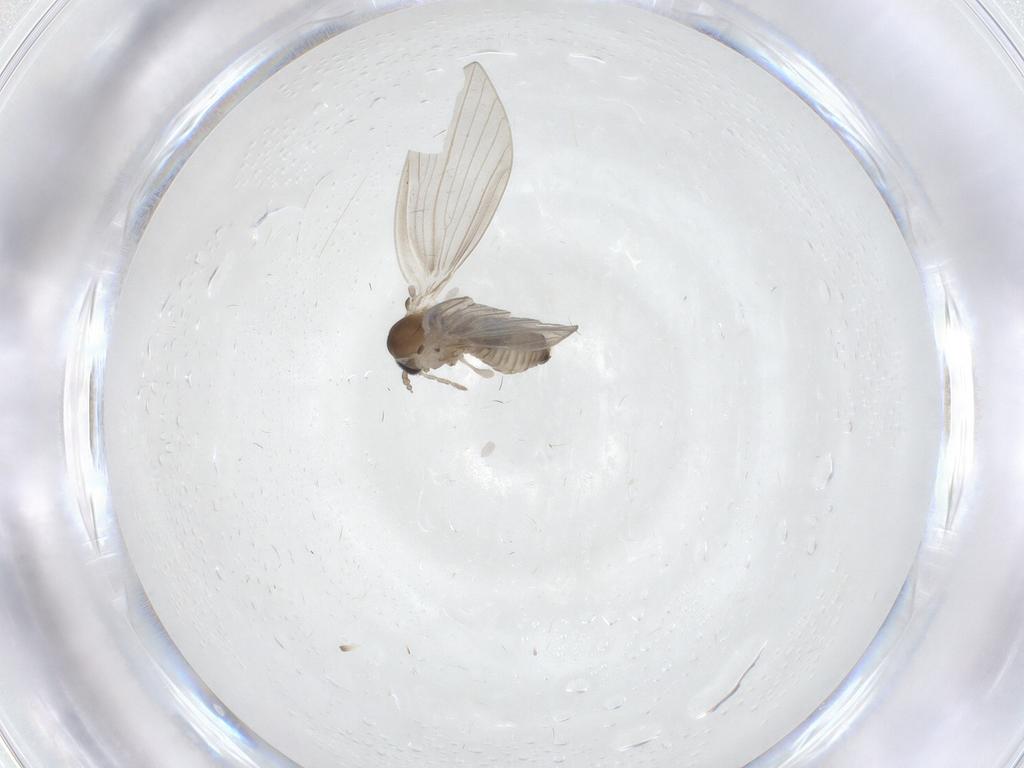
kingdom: Animalia
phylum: Arthropoda
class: Insecta
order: Diptera
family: Psychodidae
